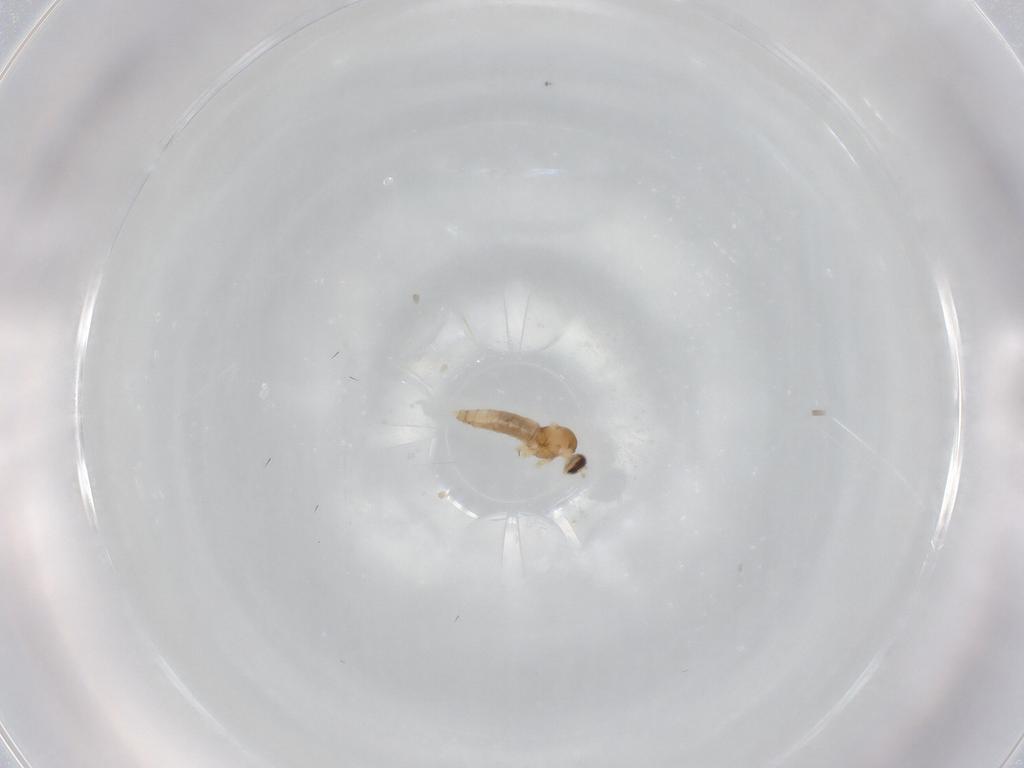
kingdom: Animalia
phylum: Arthropoda
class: Insecta
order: Diptera
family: Cecidomyiidae
